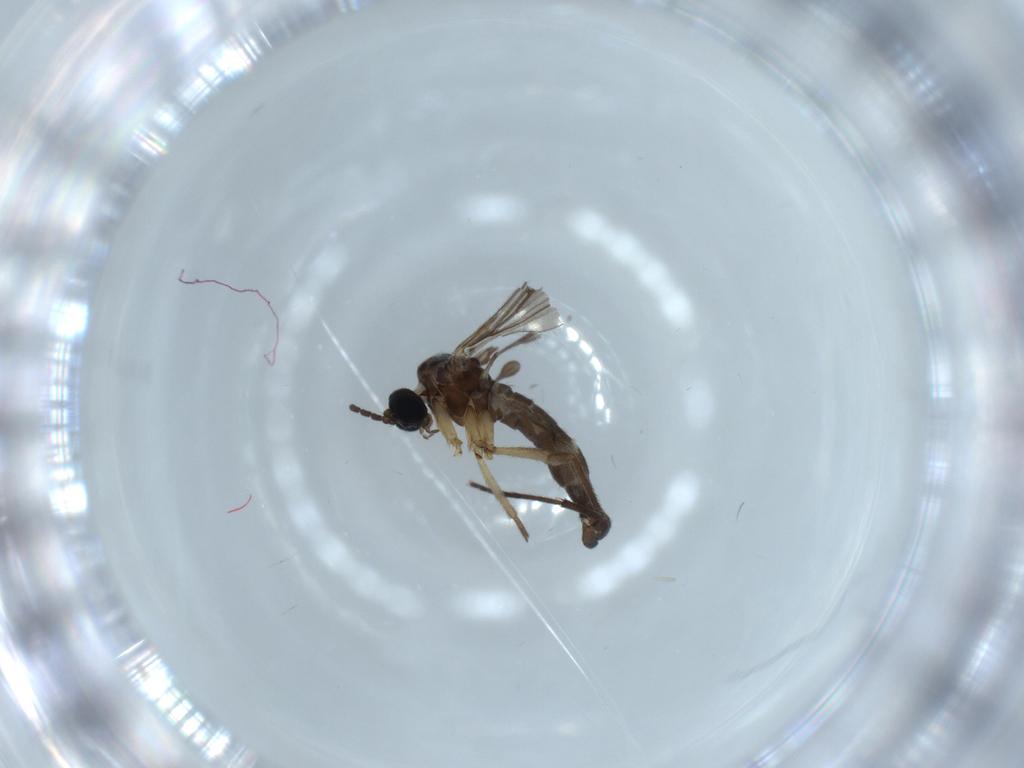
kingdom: Animalia
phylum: Arthropoda
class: Insecta
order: Diptera
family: Sciaridae
